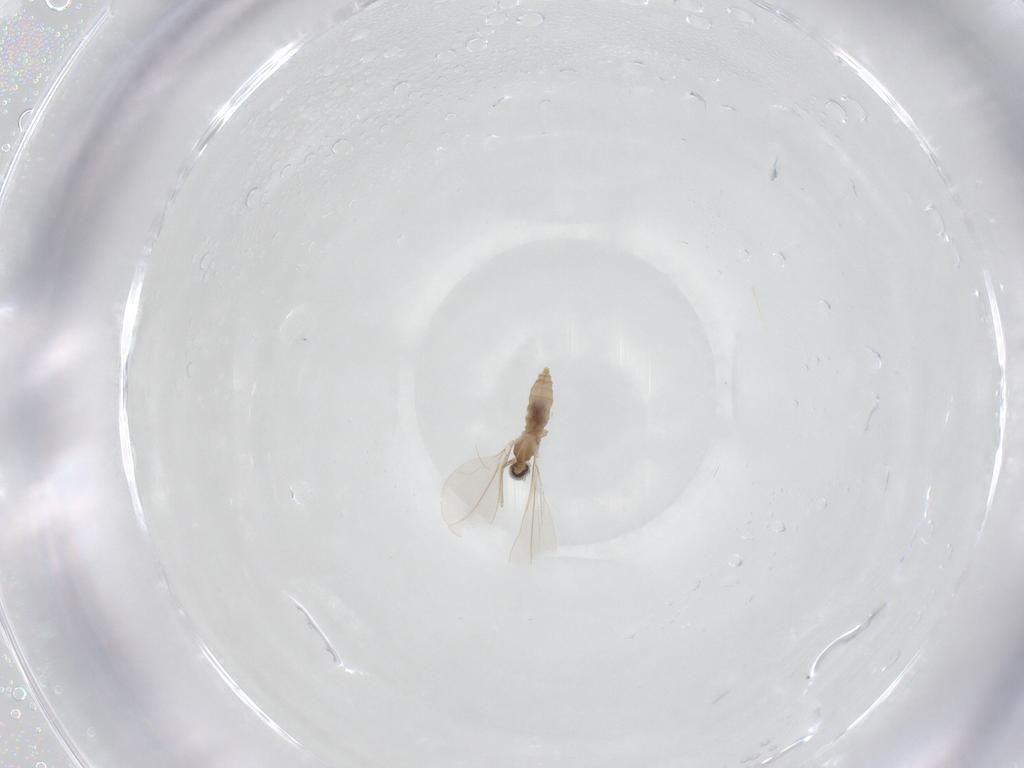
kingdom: Animalia
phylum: Arthropoda
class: Insecta
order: Diptera
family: Cecidomyiidae
